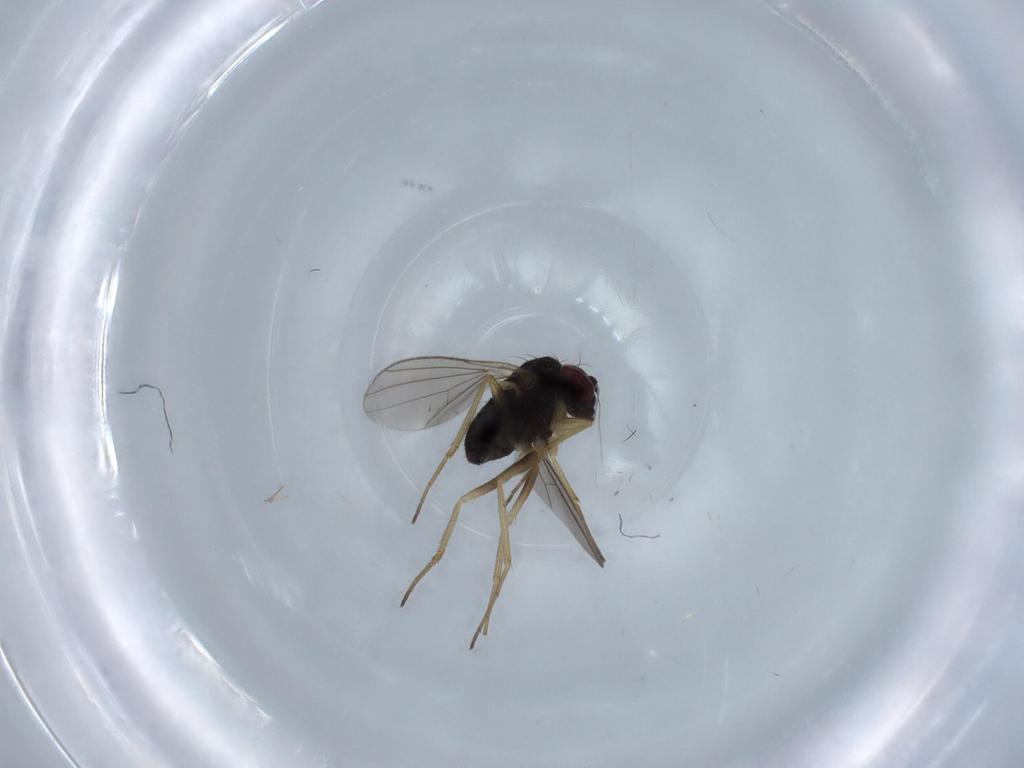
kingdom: Animalia
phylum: Arthropoda
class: Insecta
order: Diptera
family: Dolichopodidae
